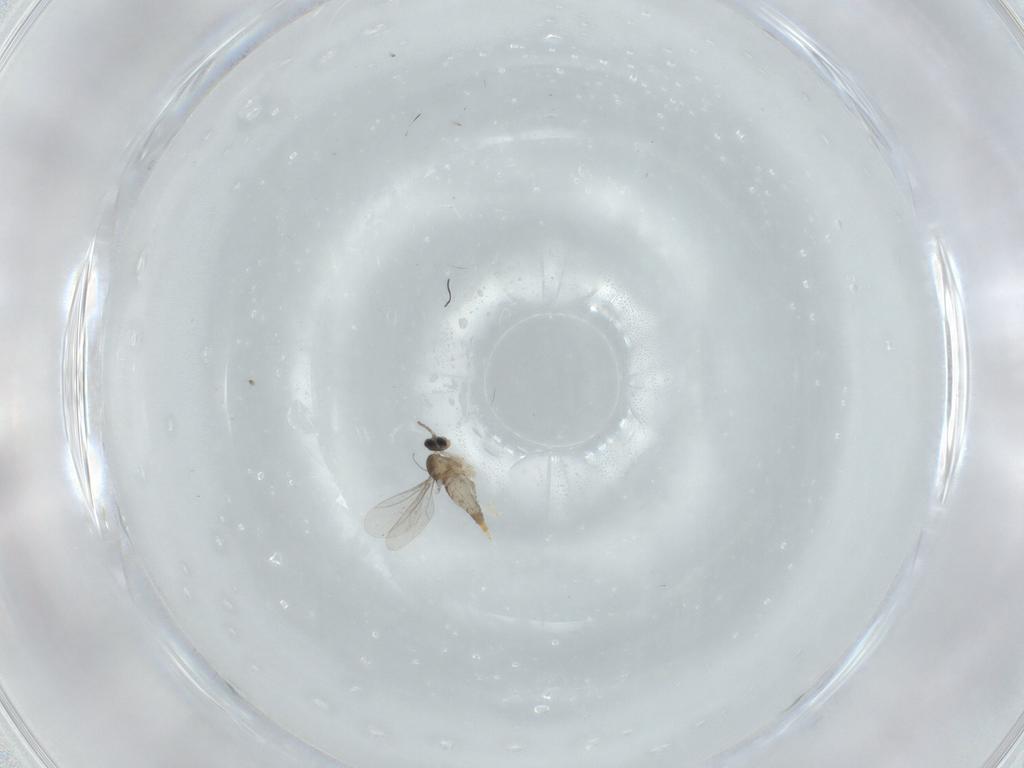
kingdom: Animalia
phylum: Arthropoda
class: Insecta
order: Diptera
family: Cecidomyiidae
